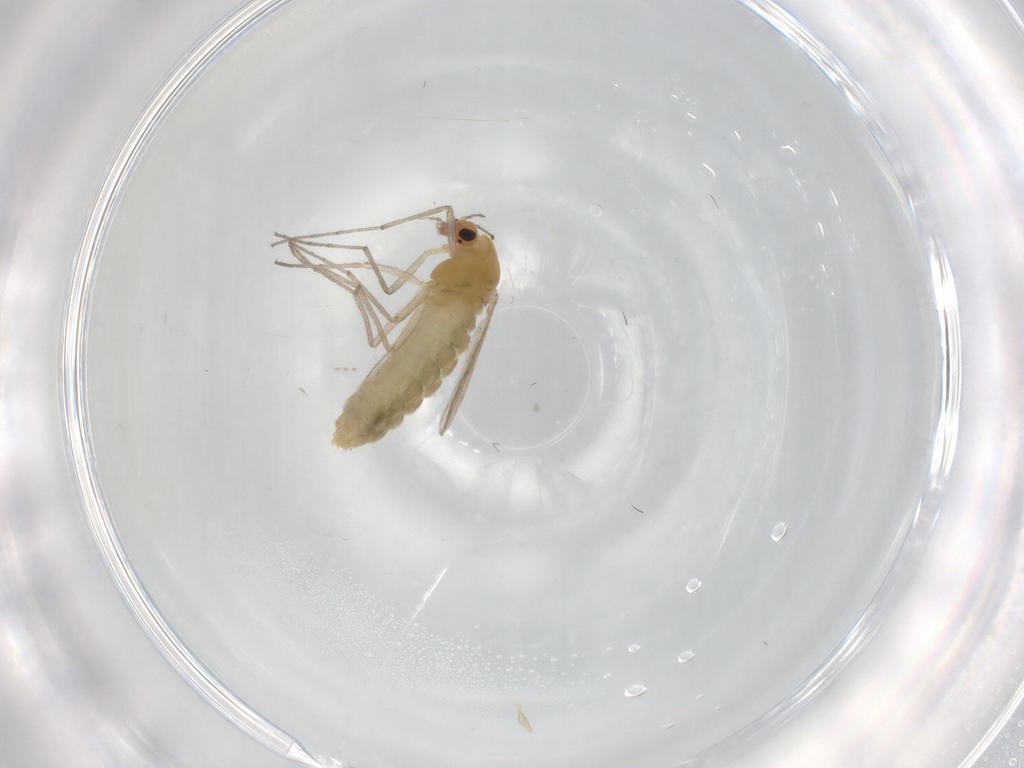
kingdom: Animalia
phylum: Arthropoda
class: Insecta
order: Diptera
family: Cecidomyiidae
